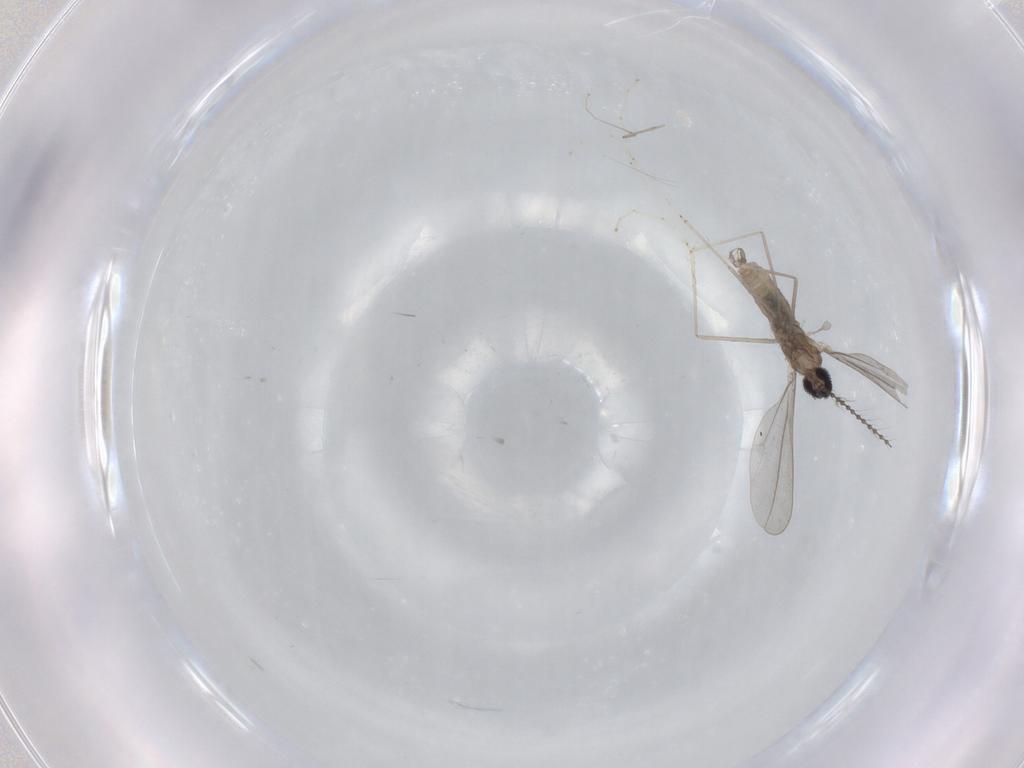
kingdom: Animalia
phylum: Arthropoda
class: Insecta
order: Diptera
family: Cecidomyiidae
